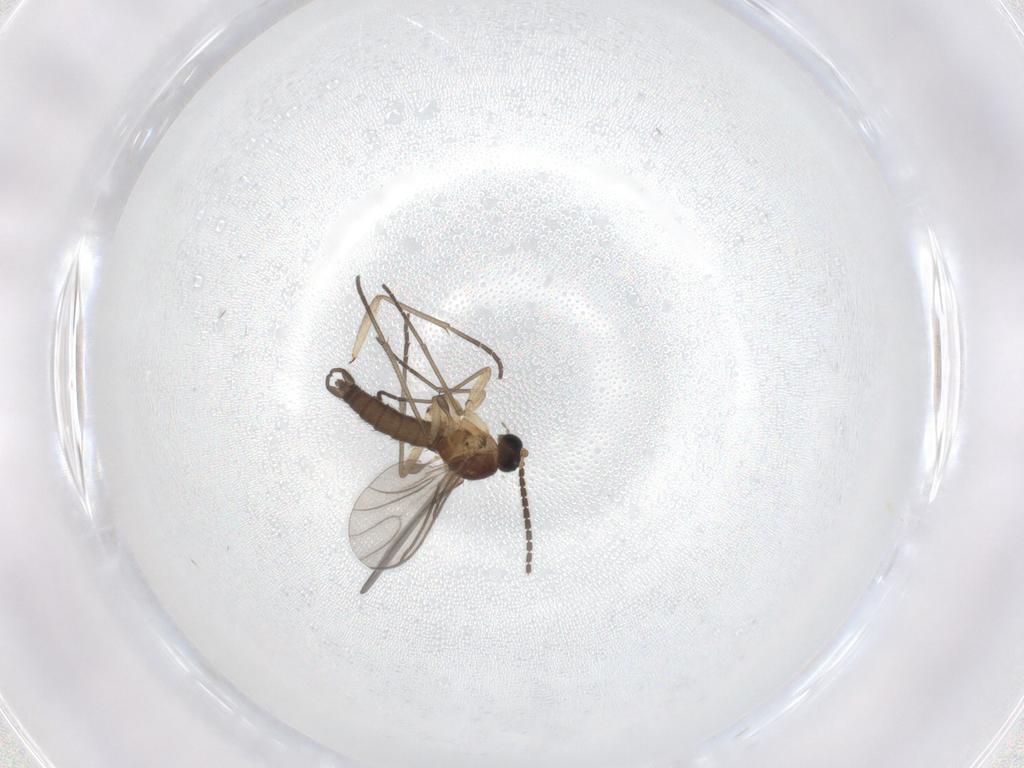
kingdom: Animalia
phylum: Arthropoda
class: Insecta
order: Diptera
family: Sciaridae
